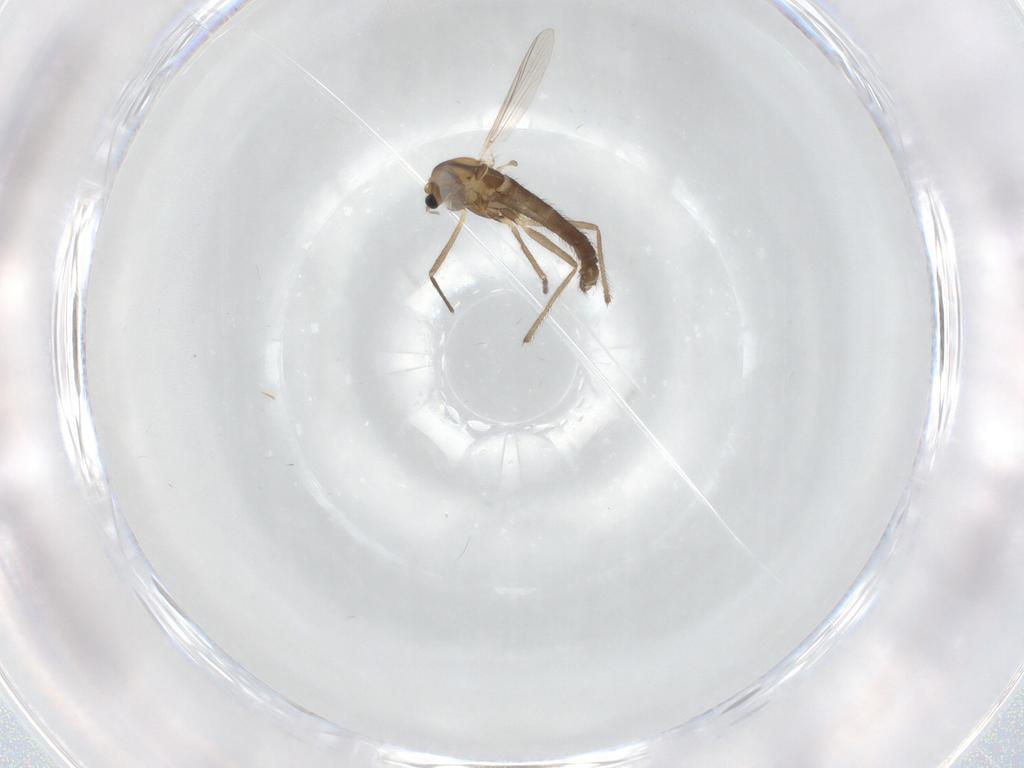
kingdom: Animalia
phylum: Arthropoda
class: Insecta
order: Diptera
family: Chironomidae
